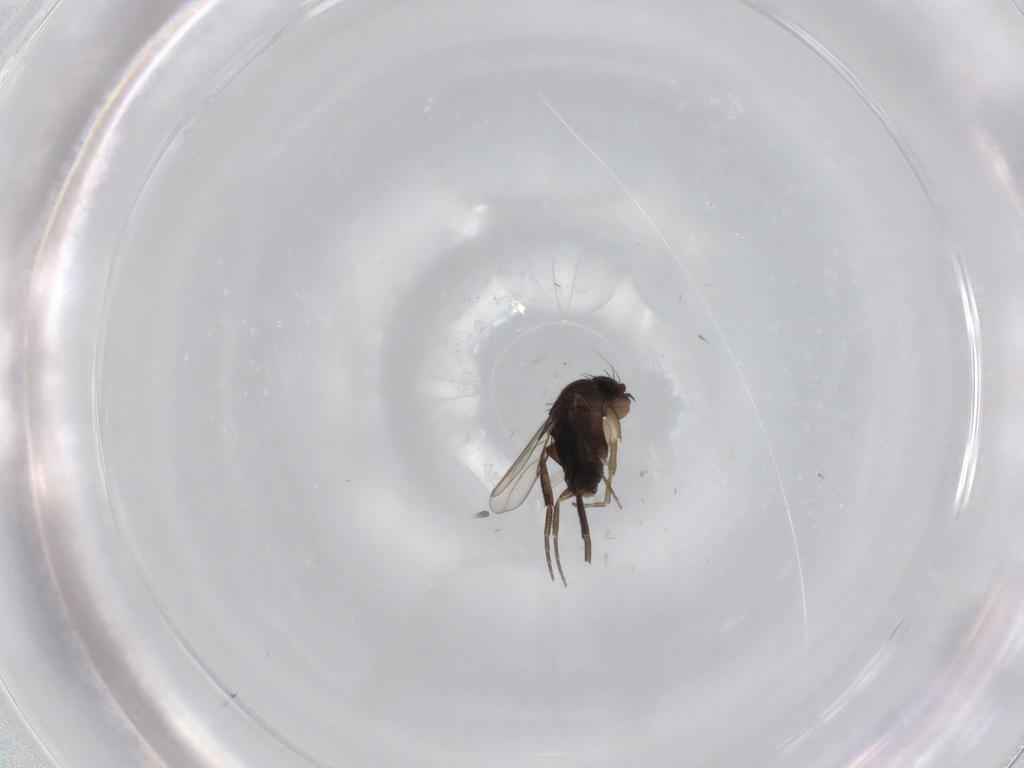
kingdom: Animalia
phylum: Arthropoda
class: Insecta
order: Diptera
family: Phoridae
